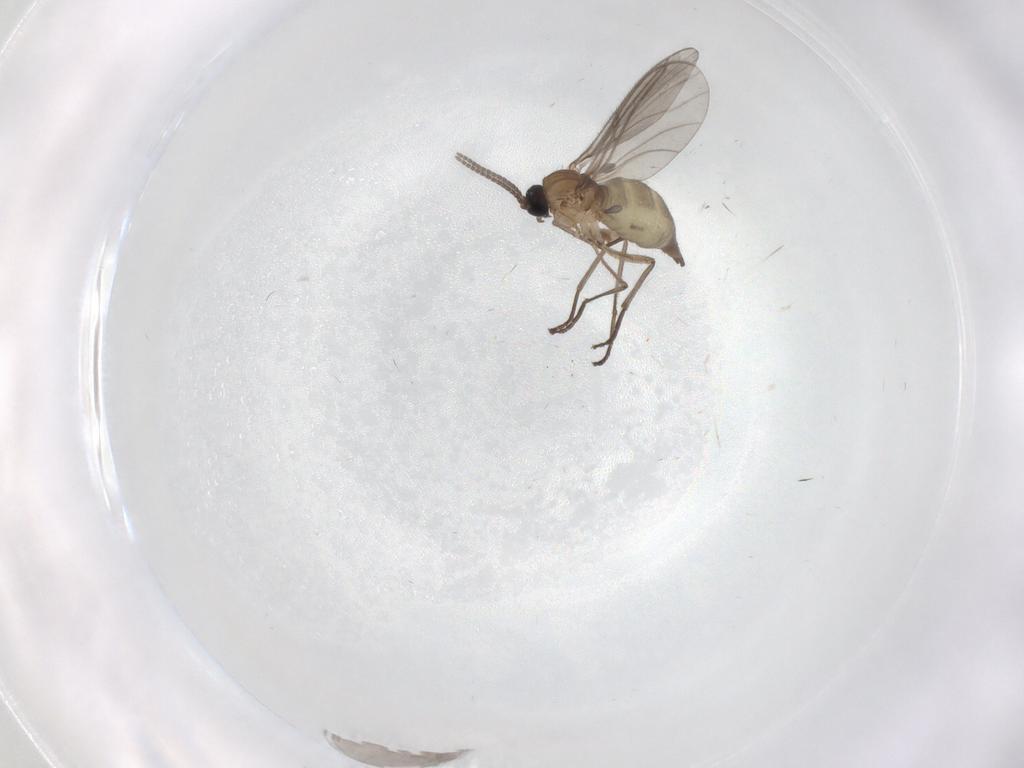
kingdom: Animalia
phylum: Arthropoda
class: Insecta
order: Diptera
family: Sciaridae
